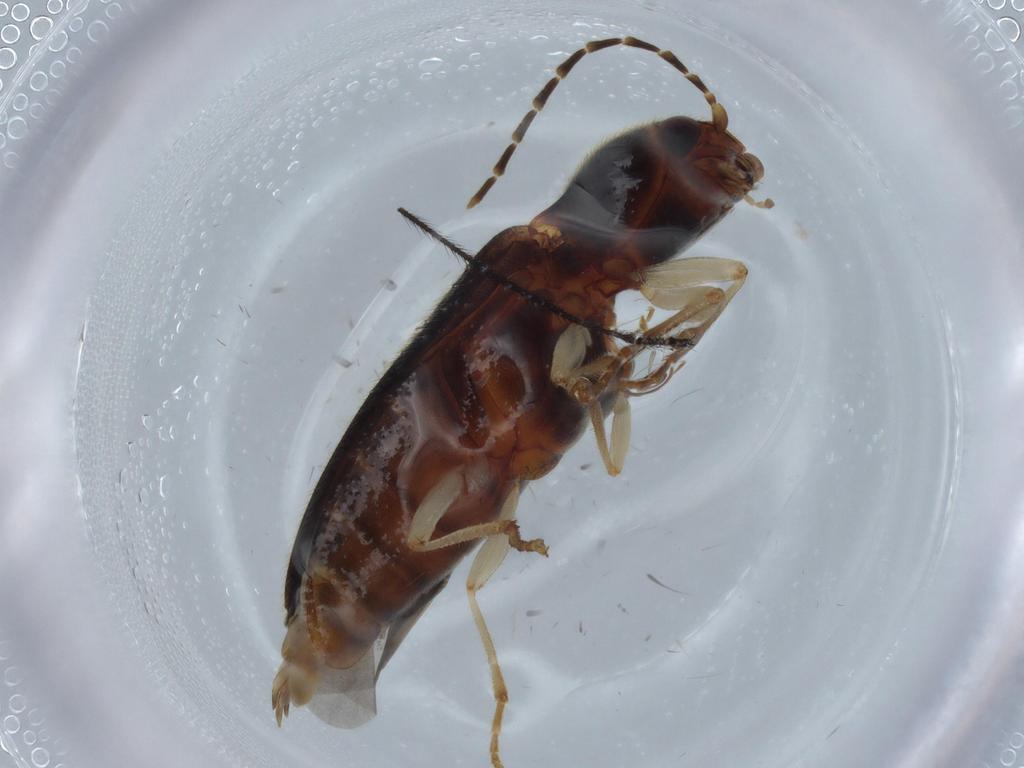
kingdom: Animalia
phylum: Arthropoda
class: Insecta
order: Coleoptera
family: Elateridae
